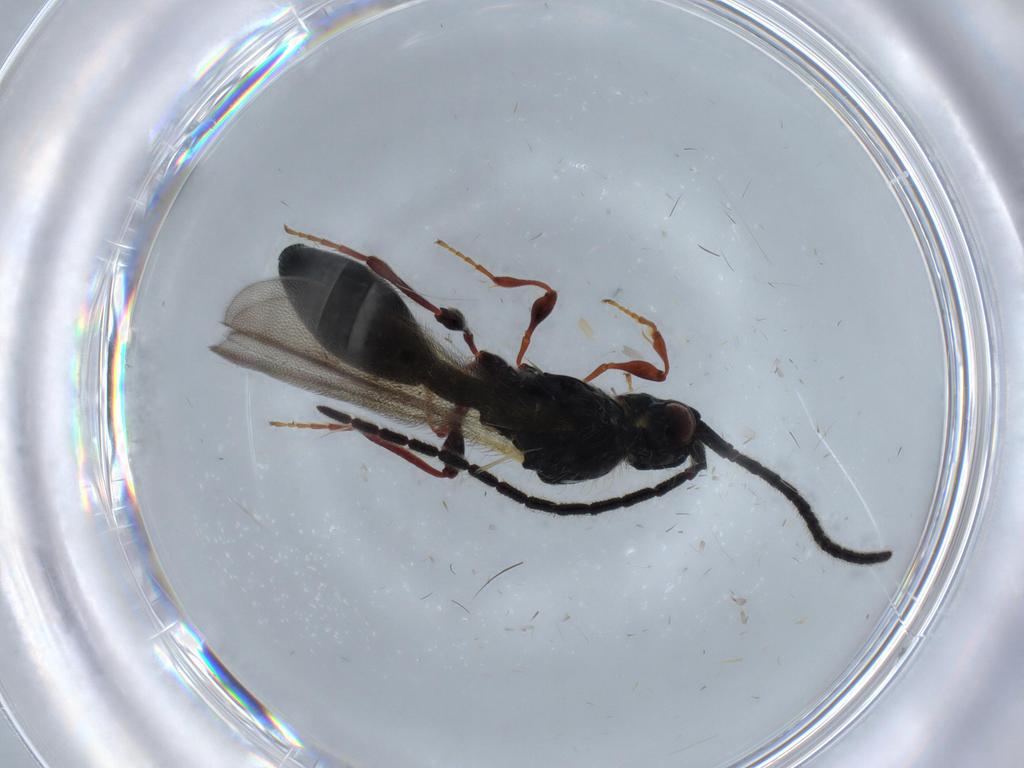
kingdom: Animalia
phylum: Arthropoda
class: Insecta
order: Hymenoptera
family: Diapriidae
